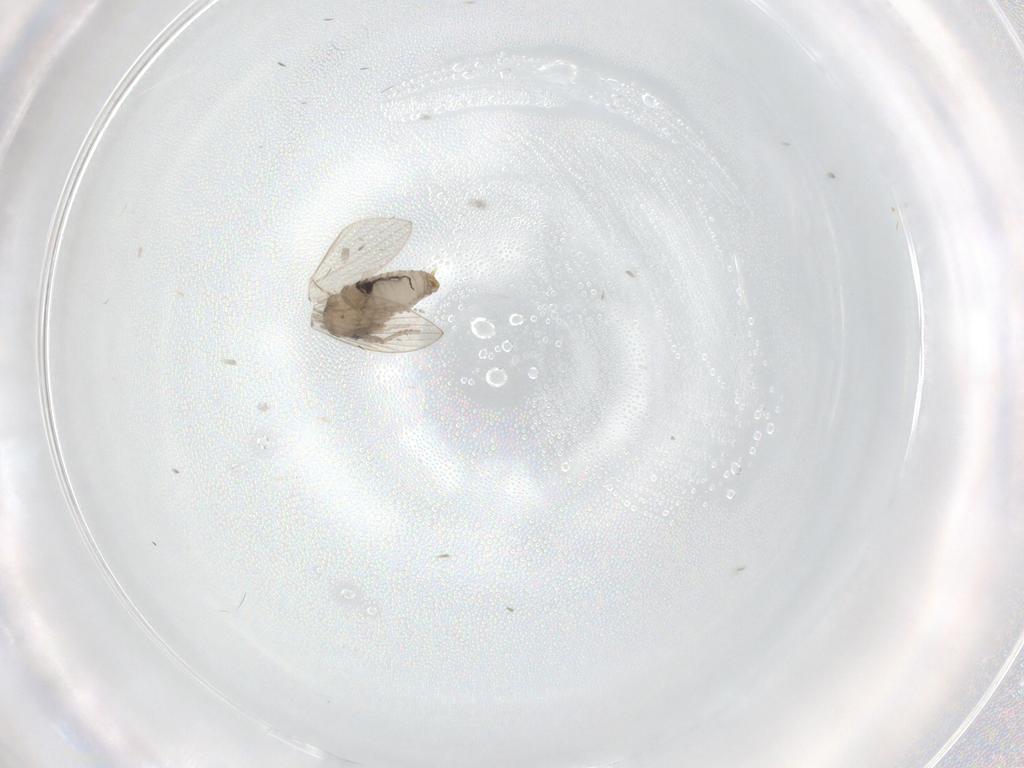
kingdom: Animalia
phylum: Arthropoda
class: Insecta
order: Diptera
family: Psychodidae
